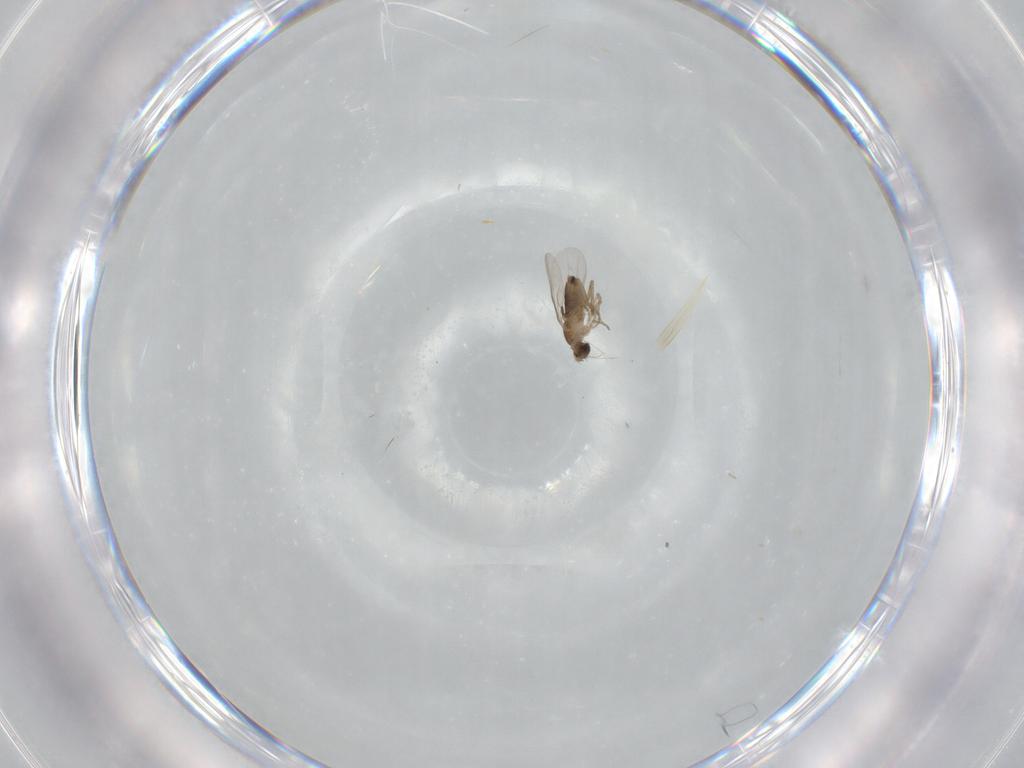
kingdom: Animalia
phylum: Arthropoda
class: Insecta
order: Diptera
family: Phoridae
